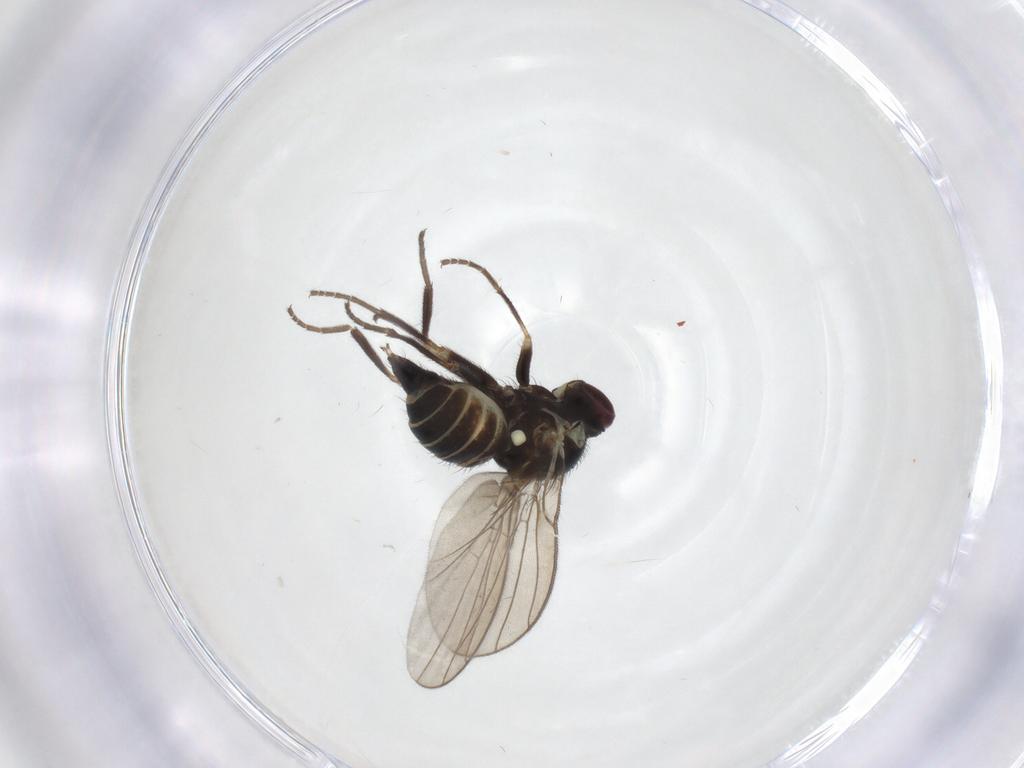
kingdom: Animalia
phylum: Arthropoda
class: Insecta
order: Diptera
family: Agromyzidae
